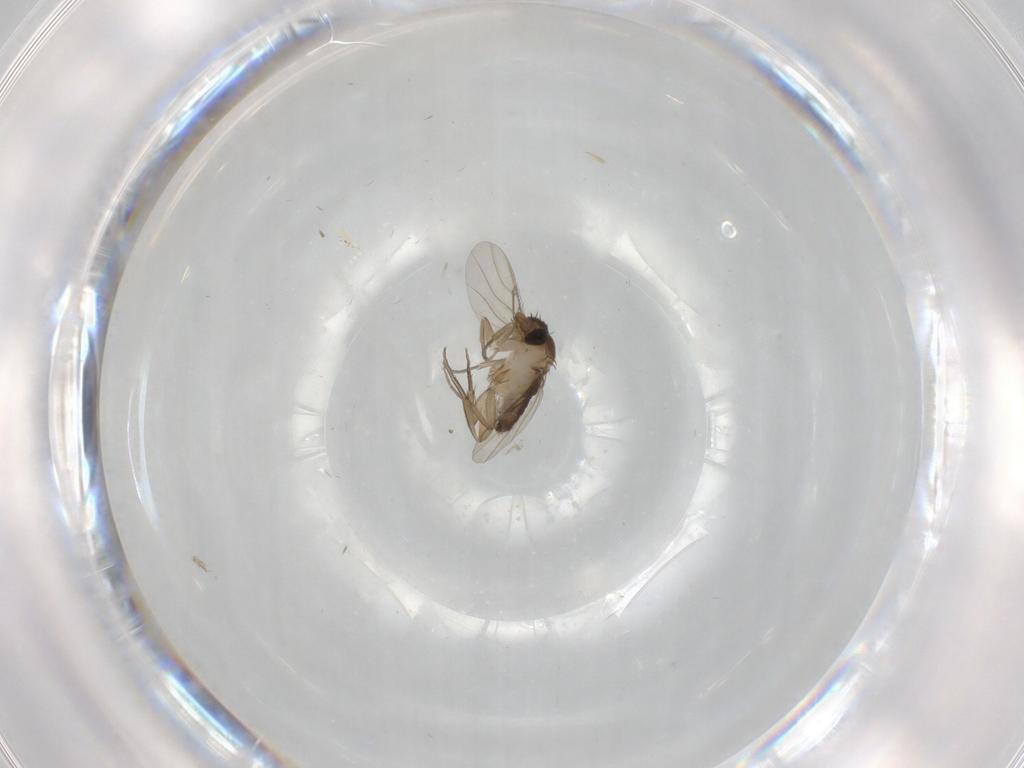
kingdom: Animalia
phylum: Arthropoda
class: Insecta
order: Diptera
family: Phoridae
